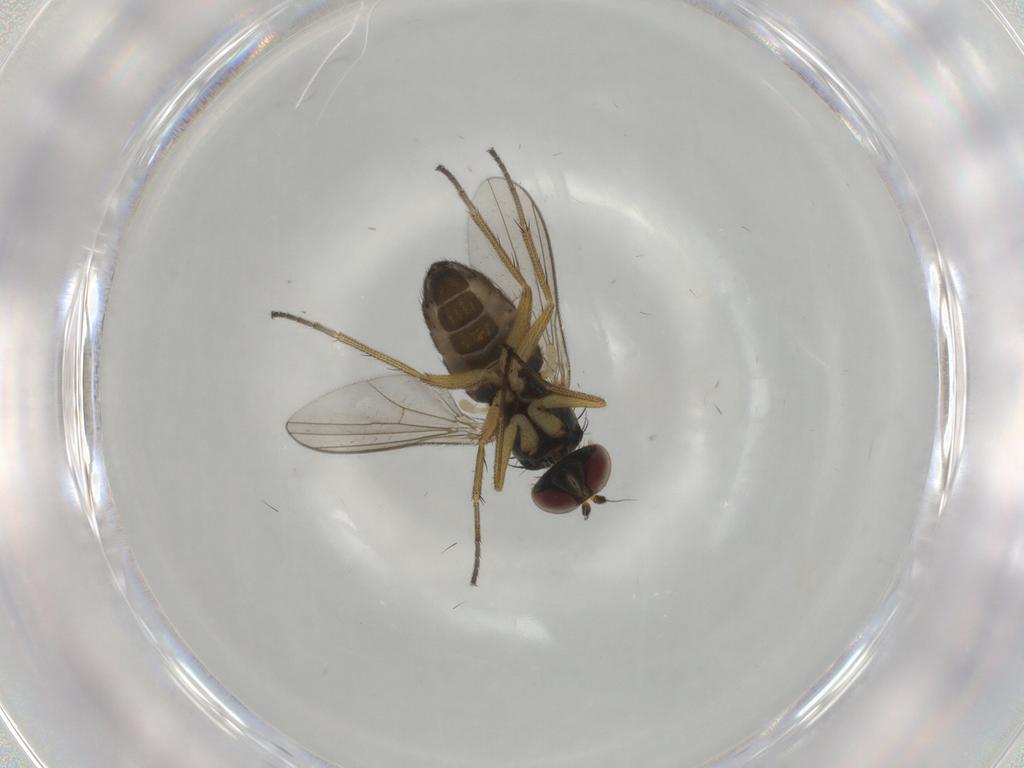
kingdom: Animalia
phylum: Arthropoda
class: Insecta
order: Diptera
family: Dolichopodidae
